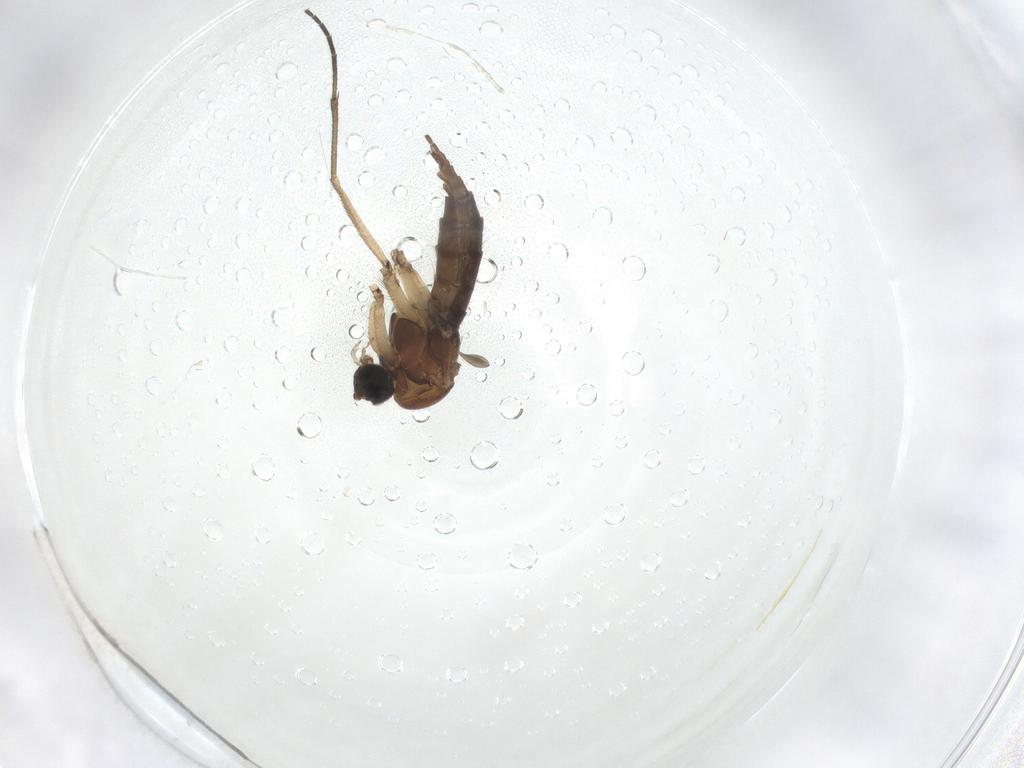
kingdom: Animalia
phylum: Arthropoda
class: Insecta
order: Diptera
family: Sciaridae
